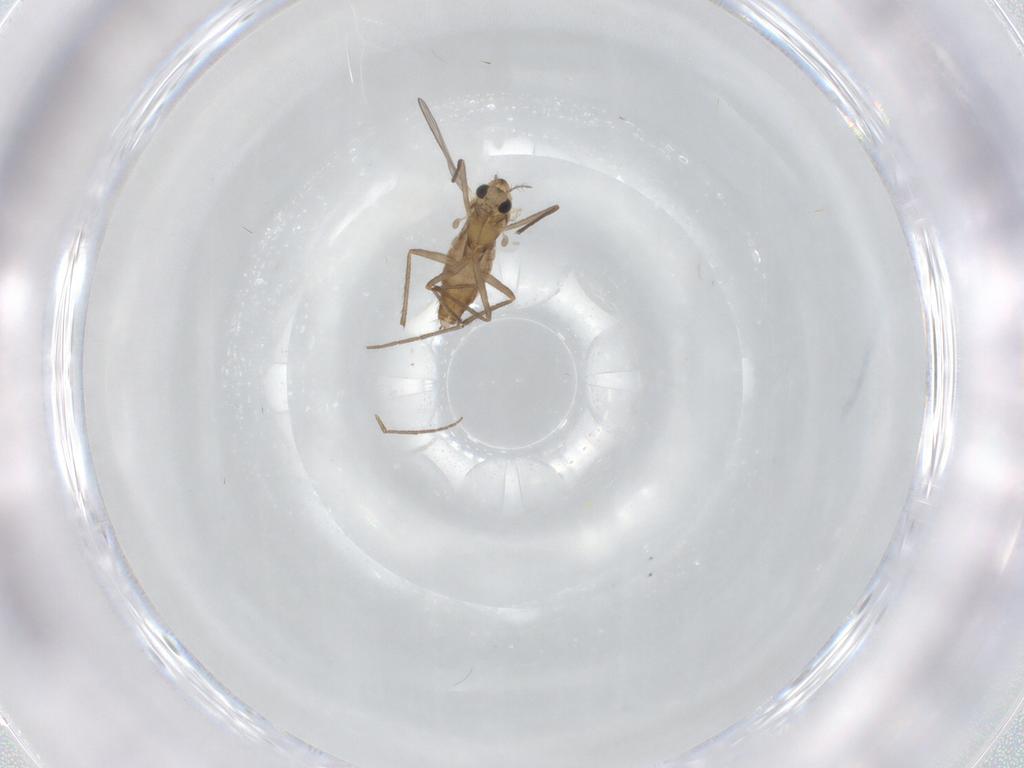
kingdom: Animalia
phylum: Arthropoda
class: Insecta
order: Diptera
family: Chironomidae
